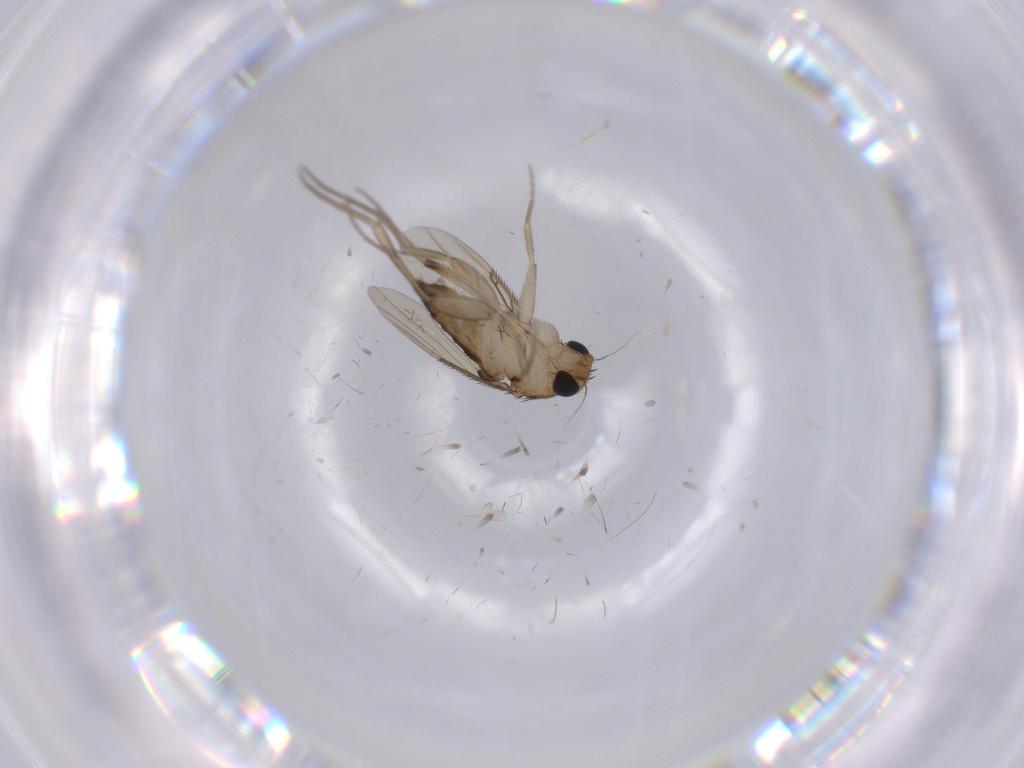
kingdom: Animalia
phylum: Arthropoda
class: Insecta
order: Diptera
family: Phoridae
